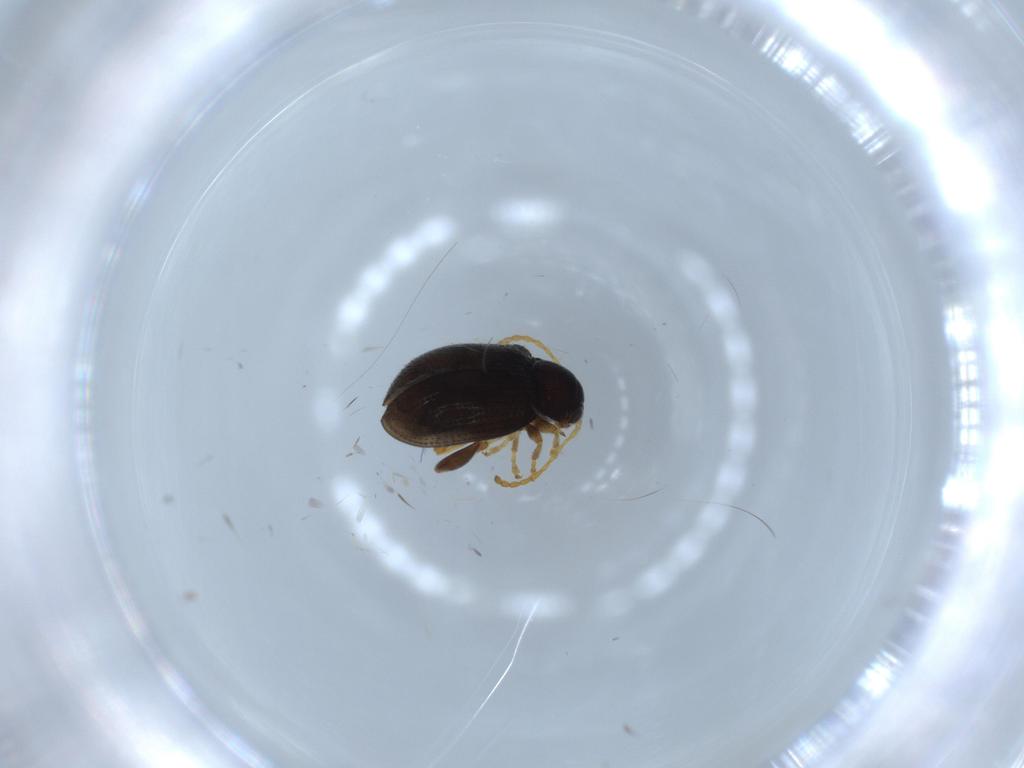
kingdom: Animalia
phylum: Arthropoda
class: Insecta
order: Coleoptera
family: Chrysomelidae
